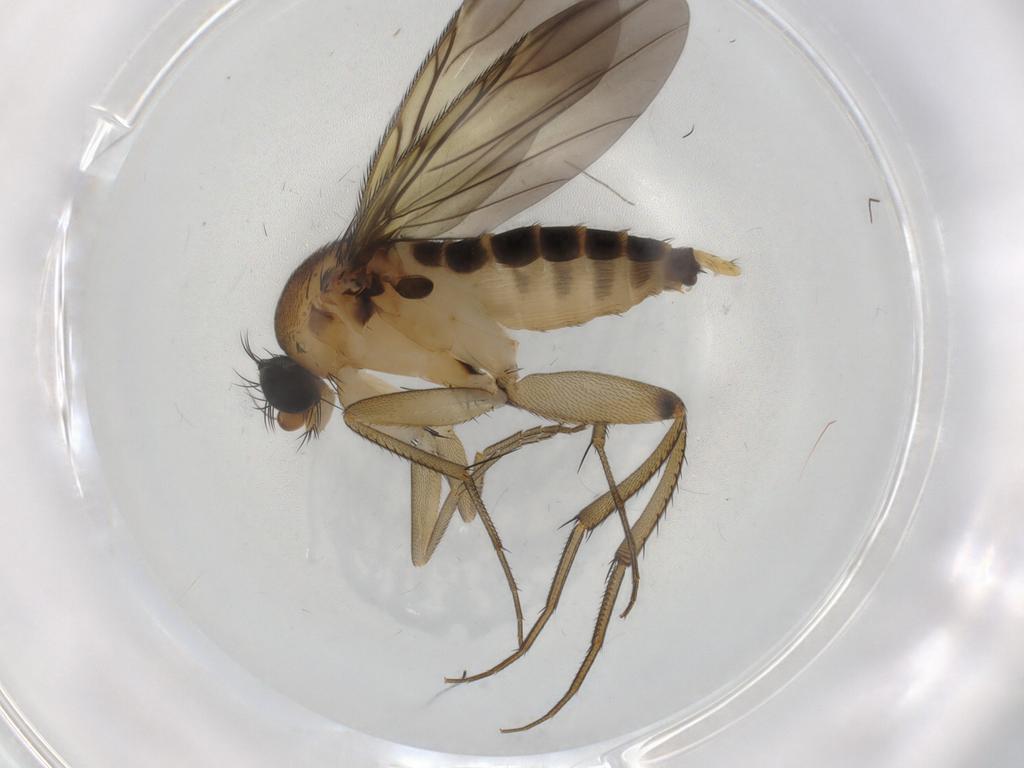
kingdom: Animalia
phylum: Arthropoda
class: Insecta
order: Diptera
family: Phoridae
